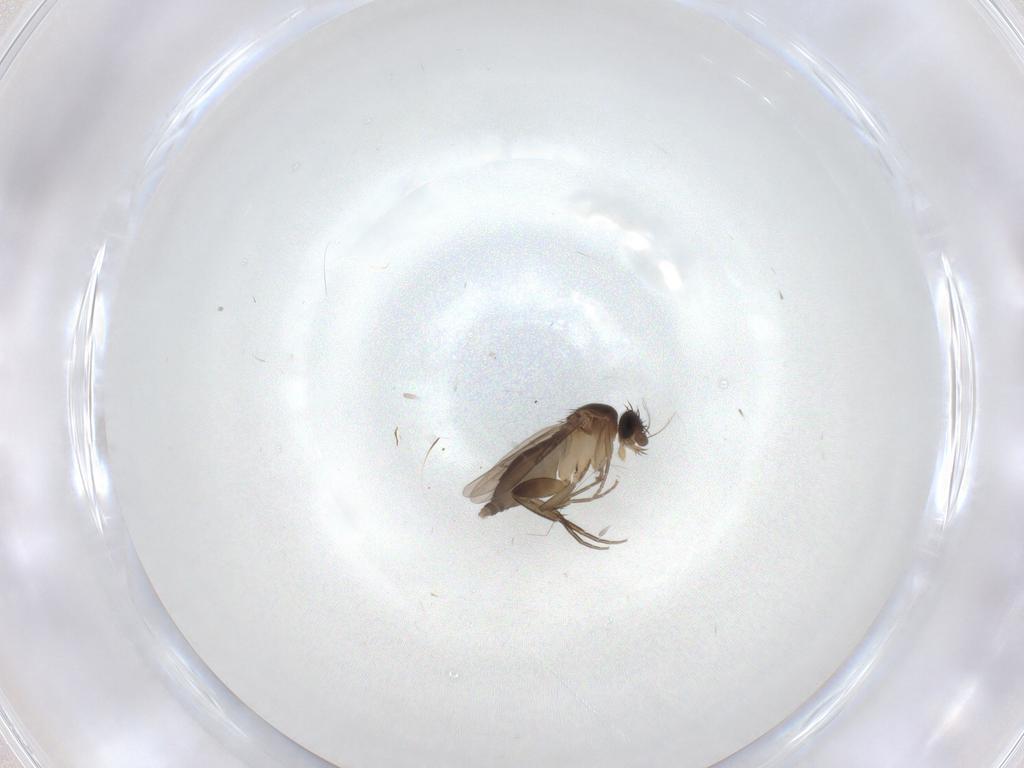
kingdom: Animalia
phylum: Arthropoda
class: Insecta
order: Diptera
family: Phoridae
